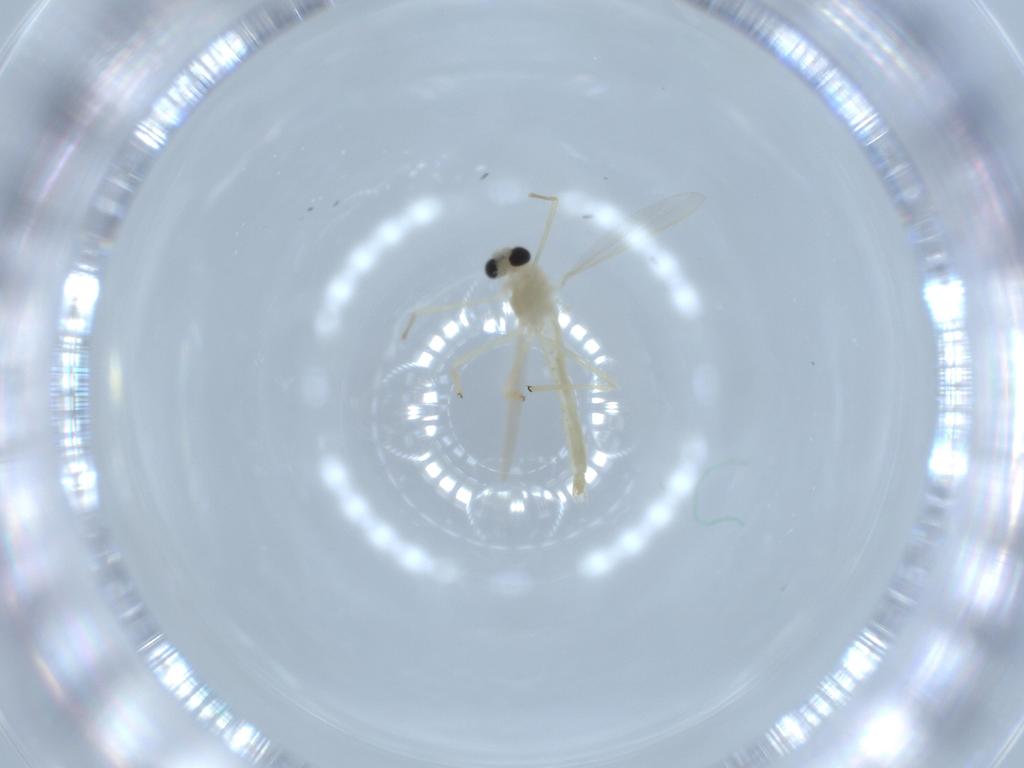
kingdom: Animalia
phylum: Arthropoda
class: Insecta
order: Diptera
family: Chironomidae
